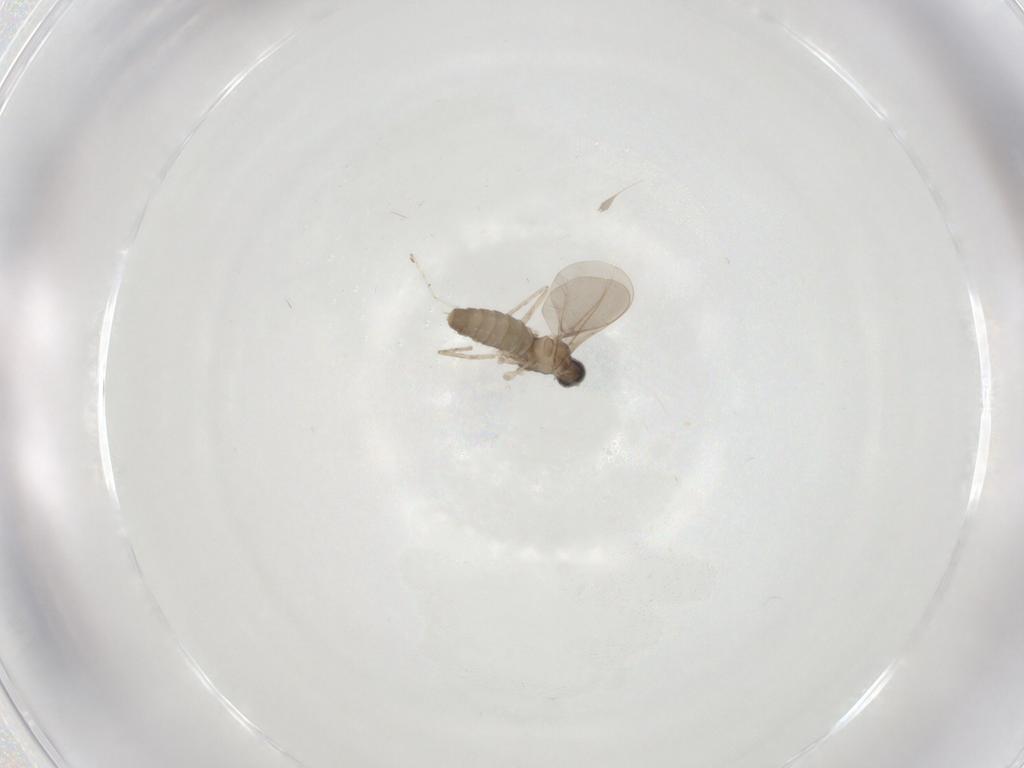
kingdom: Animalia
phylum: Arthropoda
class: Insecta
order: Diptera
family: Cecidomyiidae
